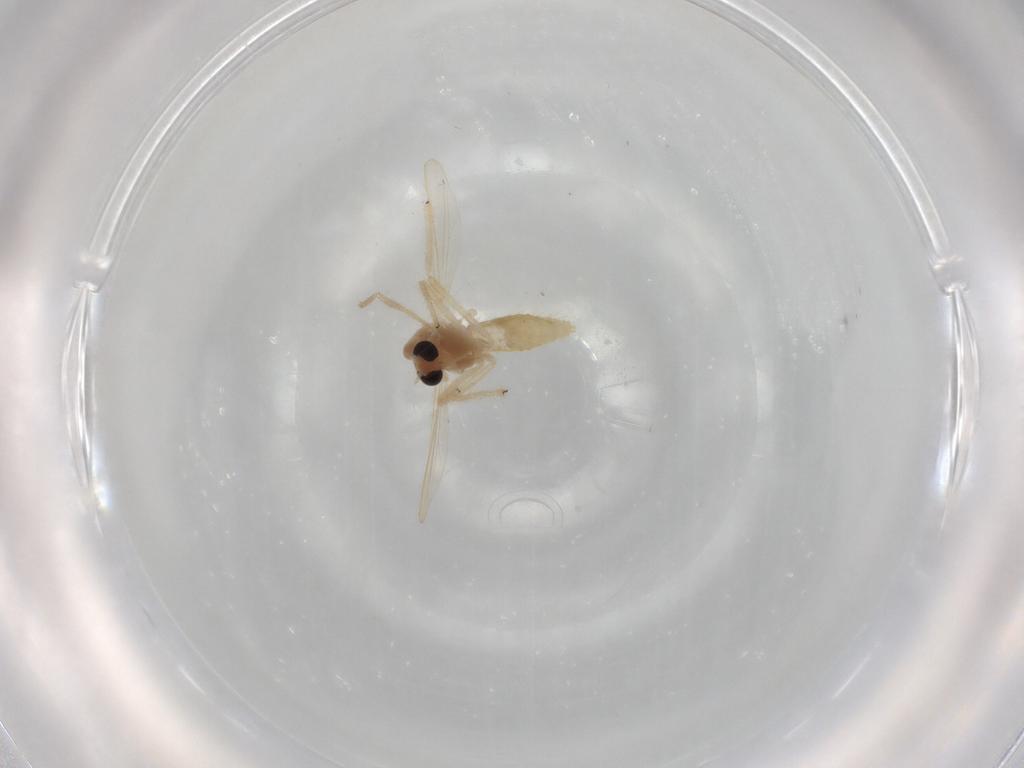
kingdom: Animalia
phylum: Arthropoda
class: Insecta
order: Diptera
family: Chironomidae
